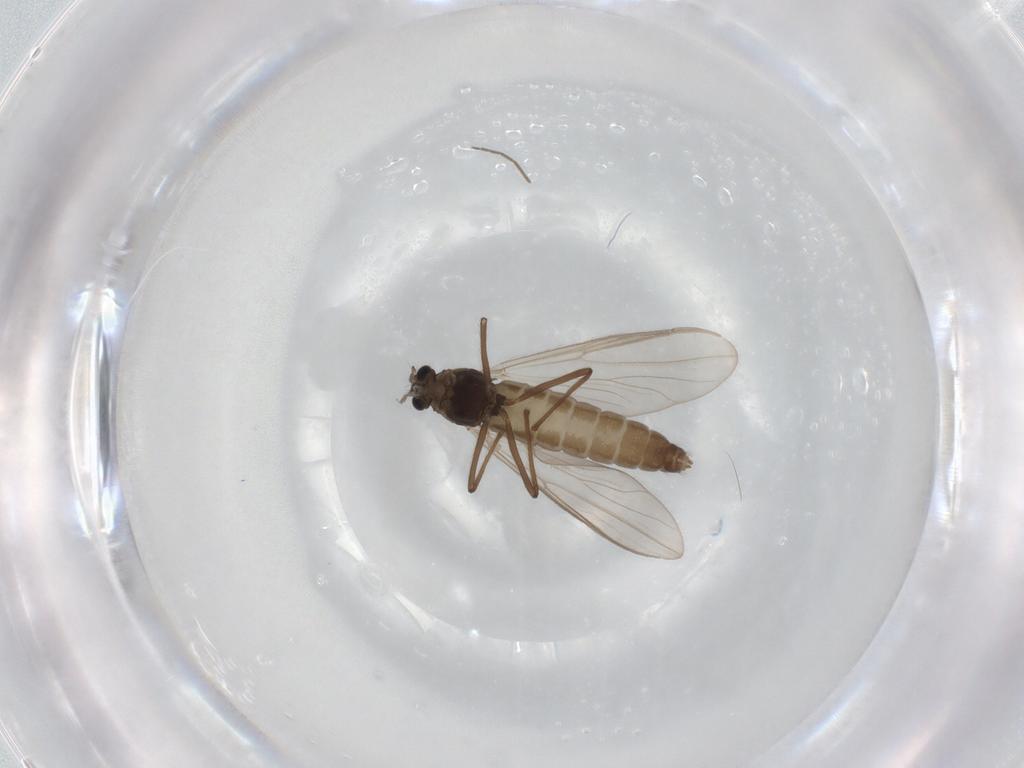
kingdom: Animalia
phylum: Arthropoda
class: Insecta
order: Diptera
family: Chironomidae
